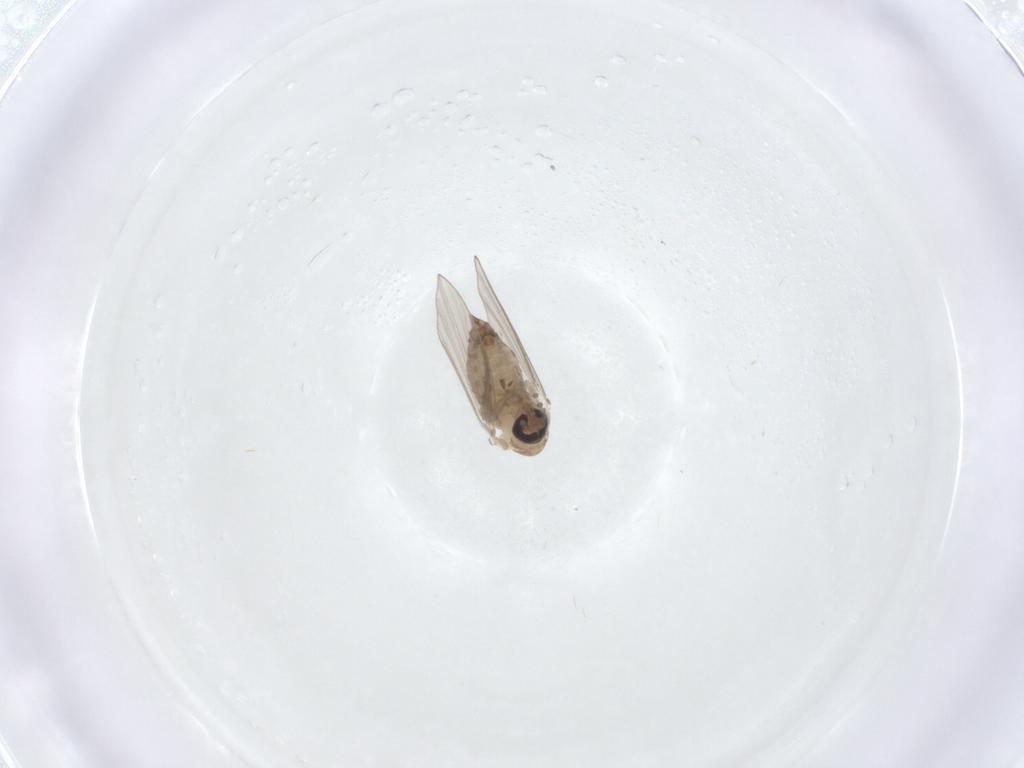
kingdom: Animalia
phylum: Arthropoda
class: Insecta
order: Diptera
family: Psychodidae
